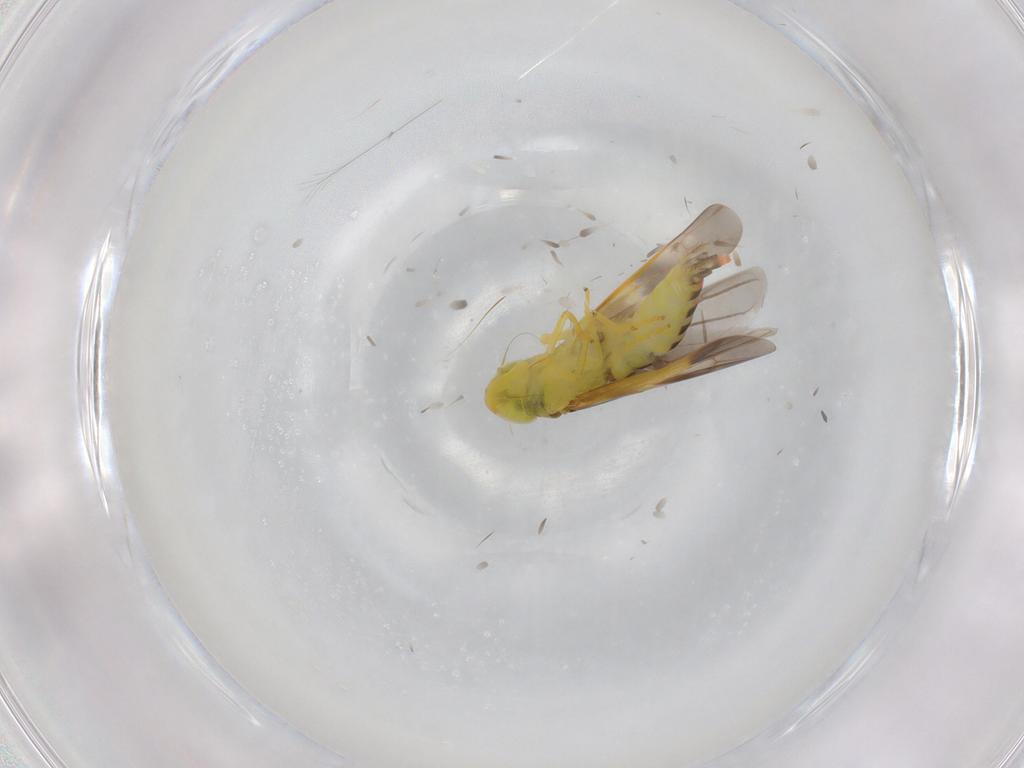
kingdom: Animalia
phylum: Arthropoda
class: Insecta
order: Hemiptera
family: Cicadellidae
